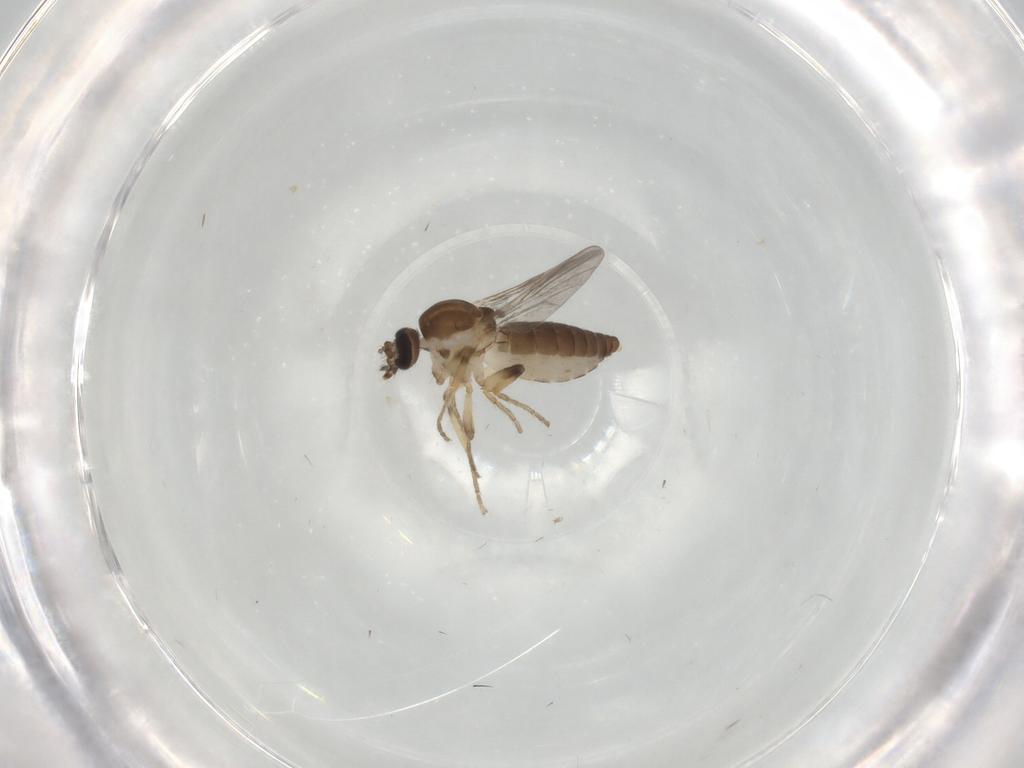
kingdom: Animalia
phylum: Arthropoda
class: Insecta
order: Diptera
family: Ceratopogonidae
